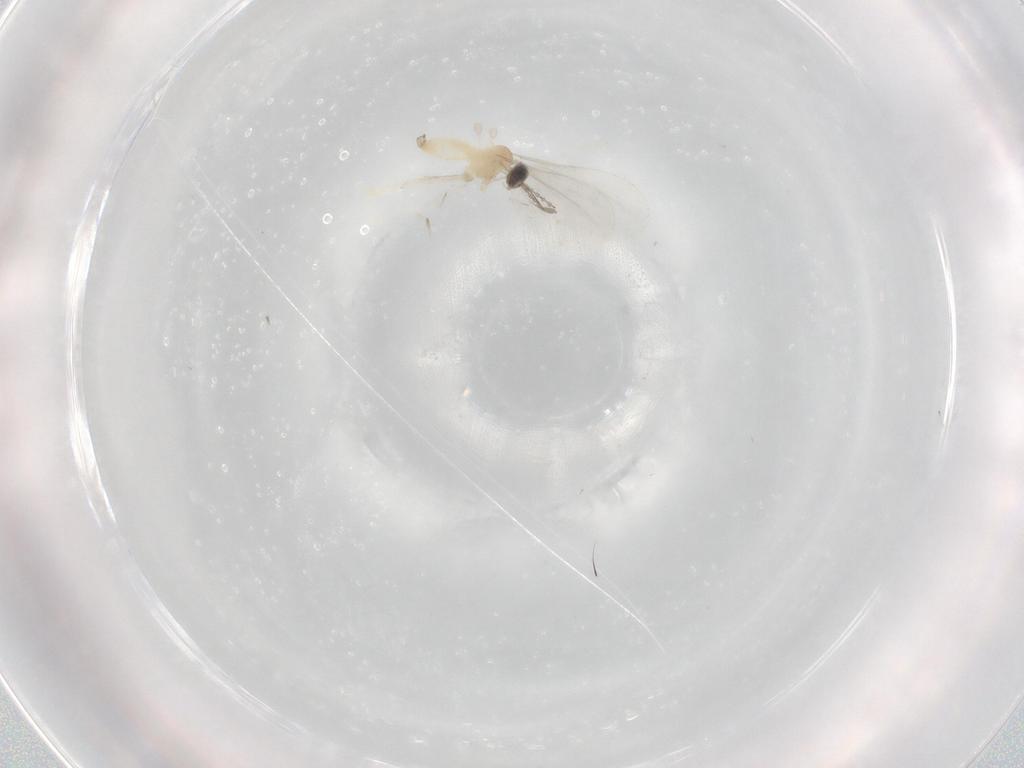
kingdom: Animalia
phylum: Arthropoda
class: Insecta
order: Diptera
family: Cecidomyiidae
